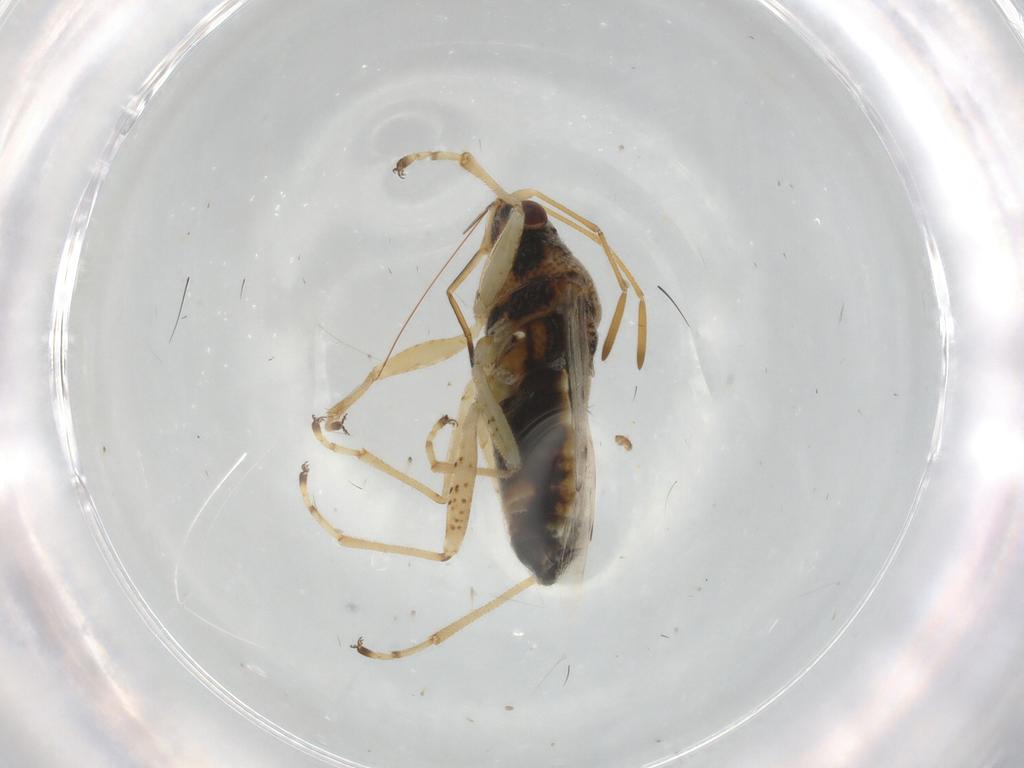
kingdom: Animalia
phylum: Arthropoda
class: Insecta
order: Hemiptera
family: Lygaeidae
